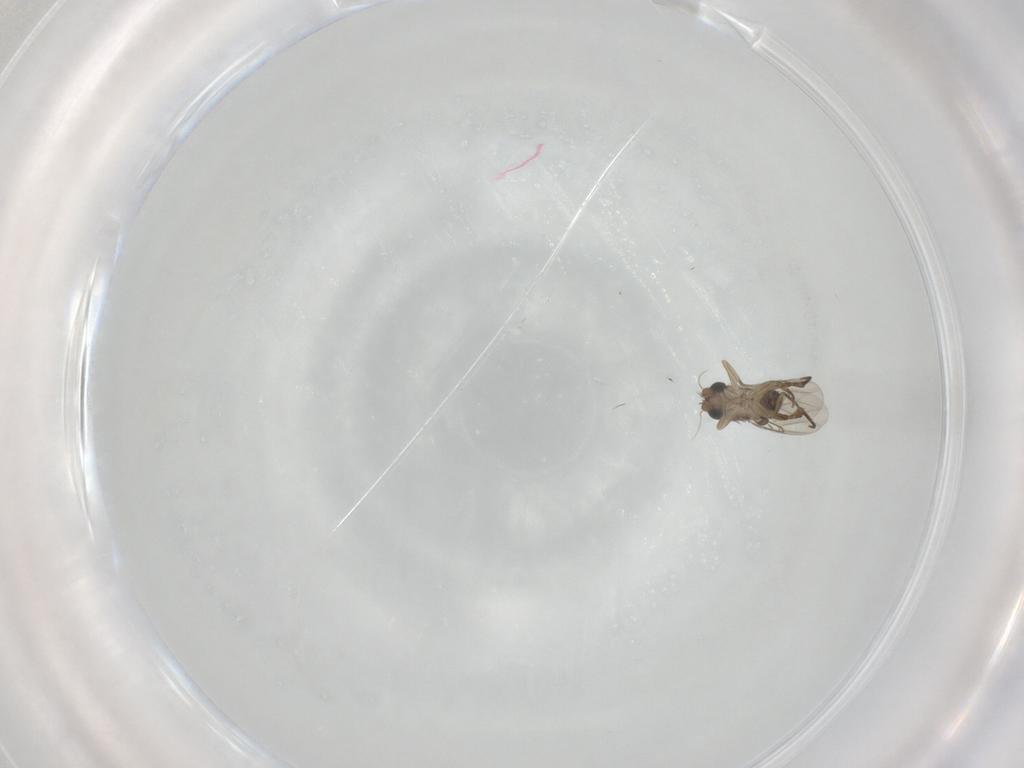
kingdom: Animalia
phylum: Arthropoda
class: Insecta
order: Diptera
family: Phoridae
